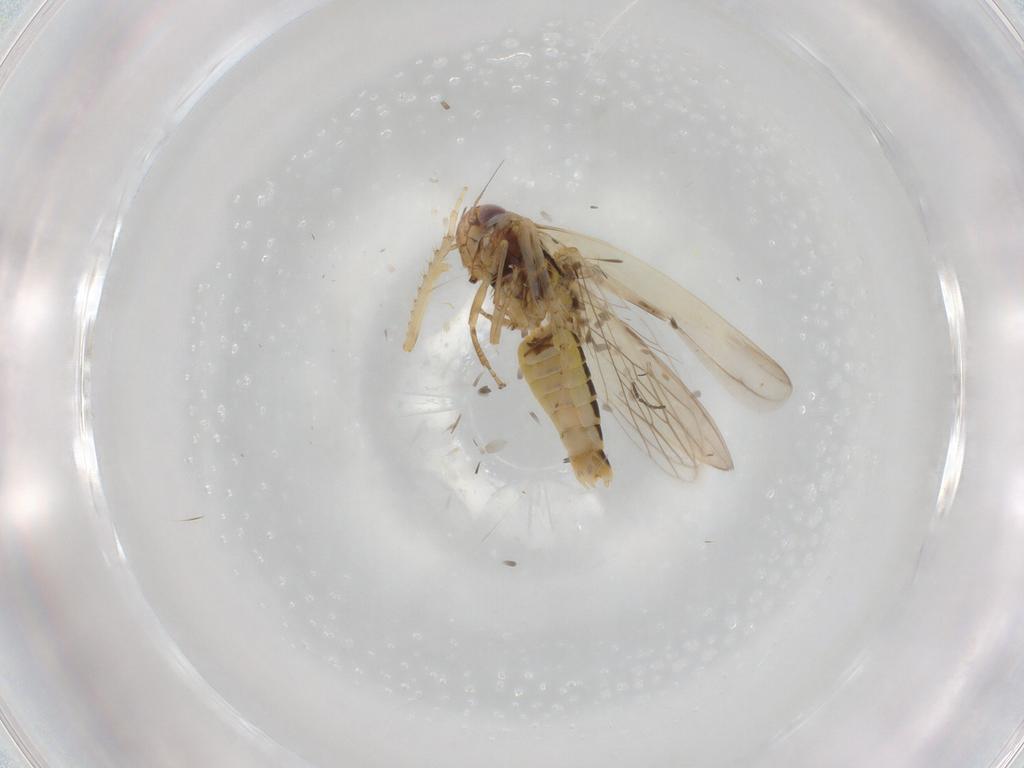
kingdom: Animalia
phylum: Arthropoda
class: Insecta
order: Hemiptera
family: Cicadellidae
